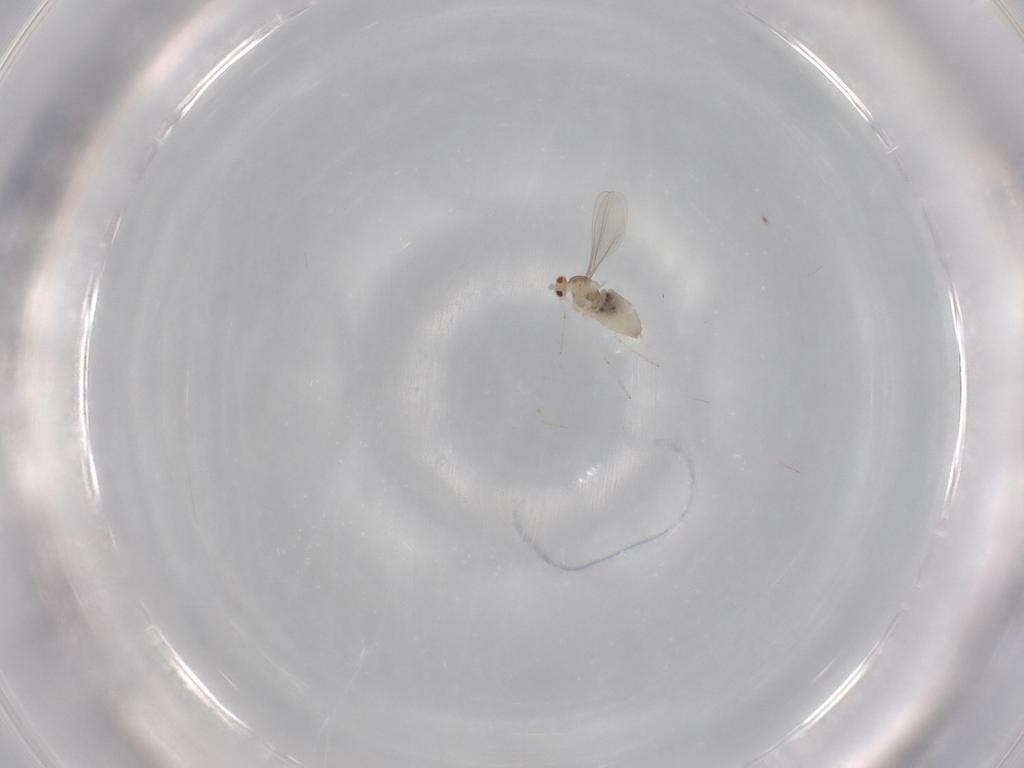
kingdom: Animalia
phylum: Arthropoda
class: Insecta
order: Diptera
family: Cecidomyiidae
